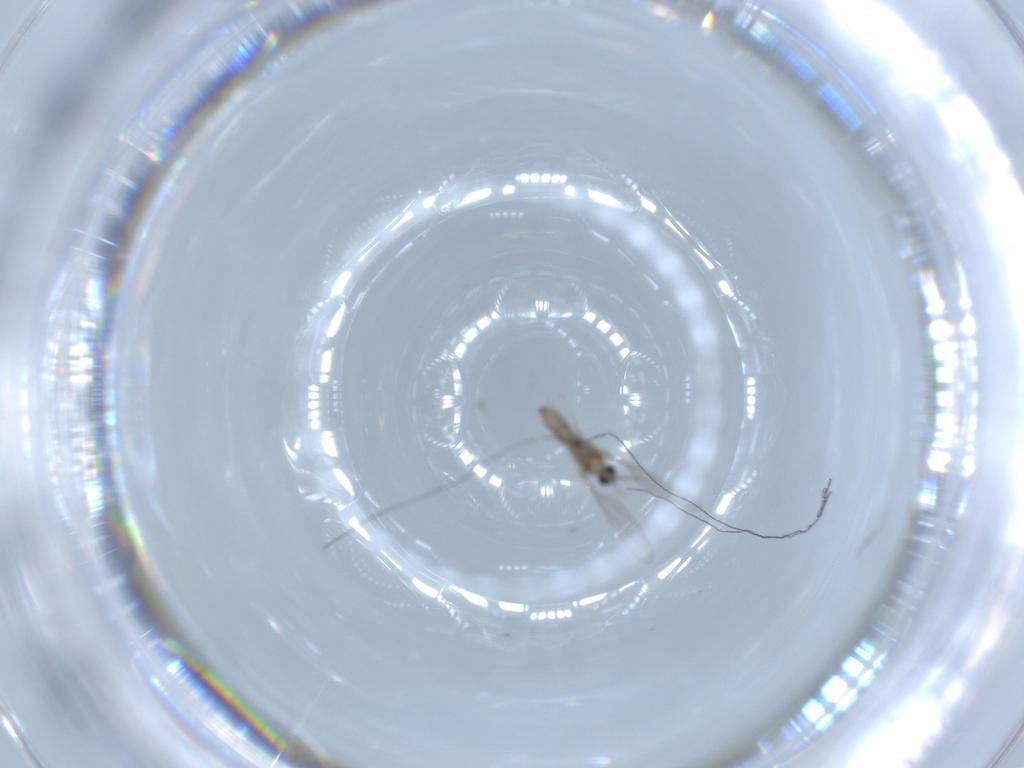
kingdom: Animalia
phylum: Arthropoda
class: Insecta
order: Diptera
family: Cecidomyiidae
